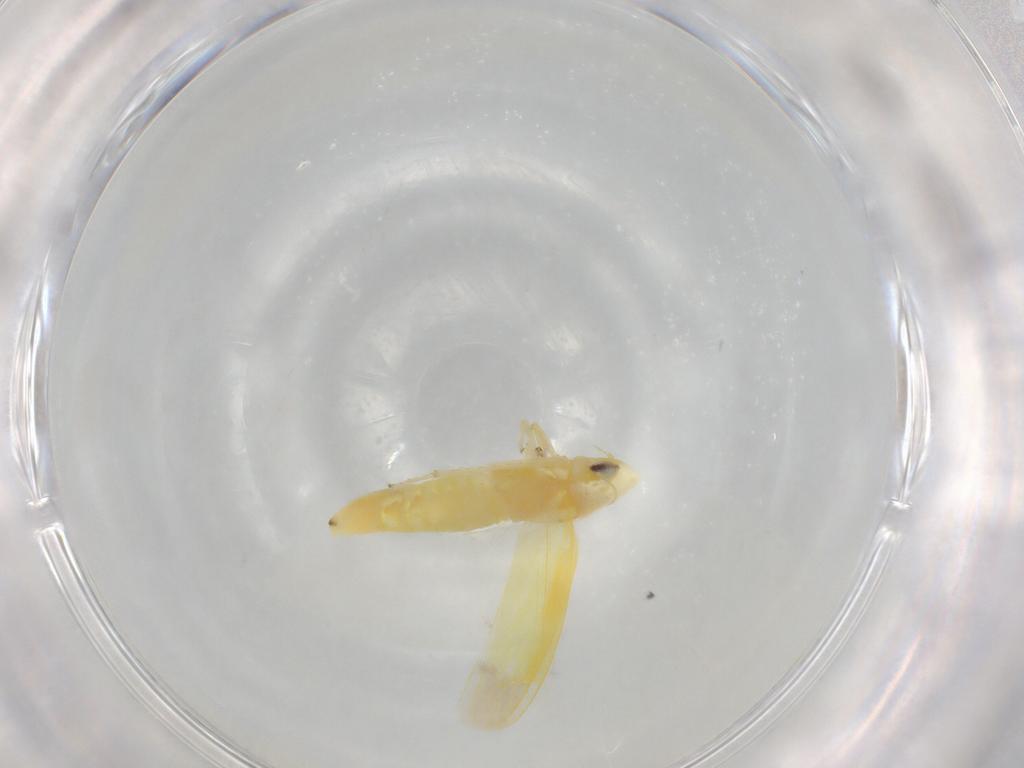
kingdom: Animalia
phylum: Arthropoda
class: Insecta
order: Hemiptera
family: Cicadellidae
